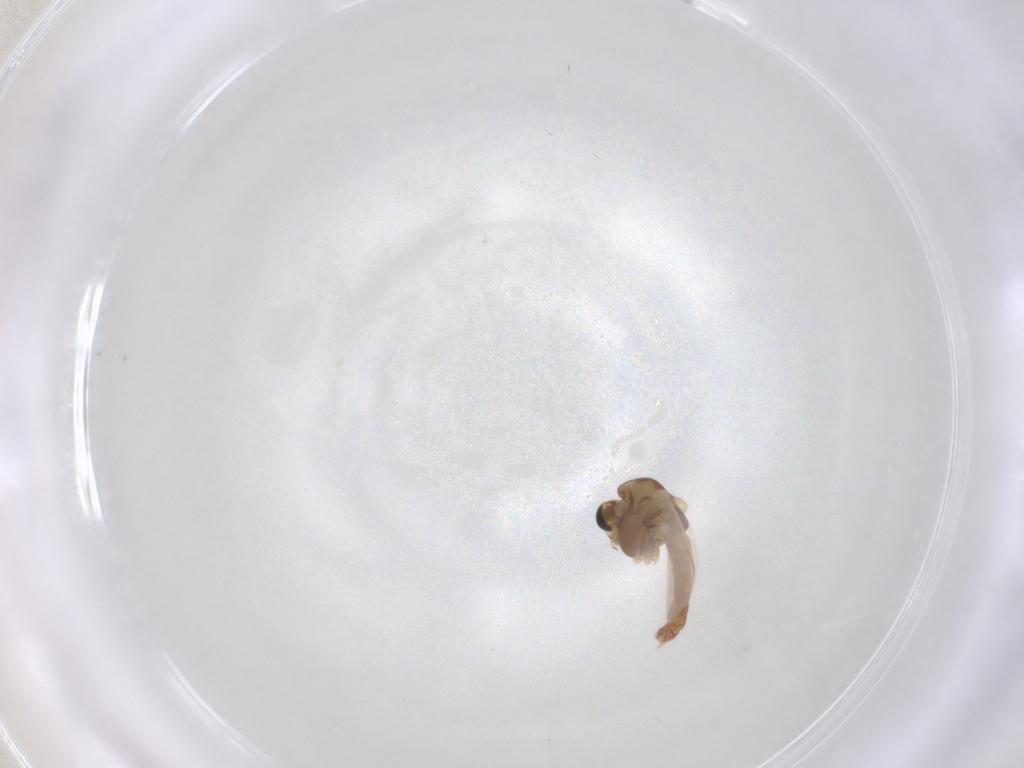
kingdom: Animalia
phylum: Arthropoda
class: Insecta
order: Diptera
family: Chironomidae
